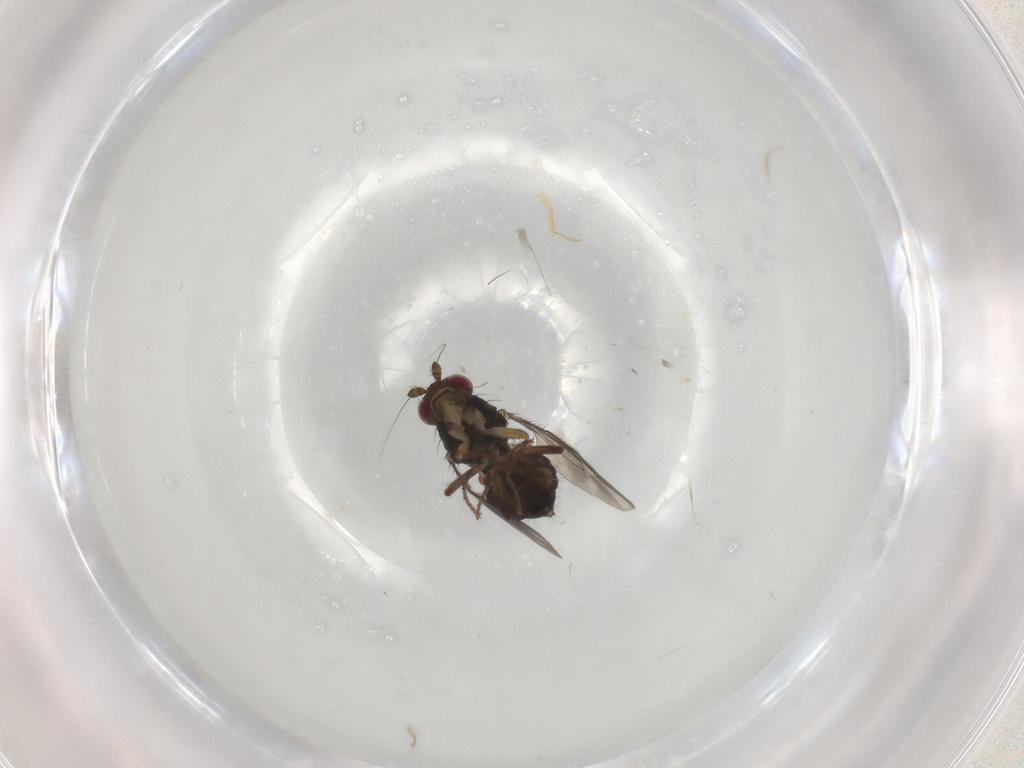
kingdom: Animalia
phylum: Arthropoda
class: Insecta
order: Diptera
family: Sphaeroceridae
